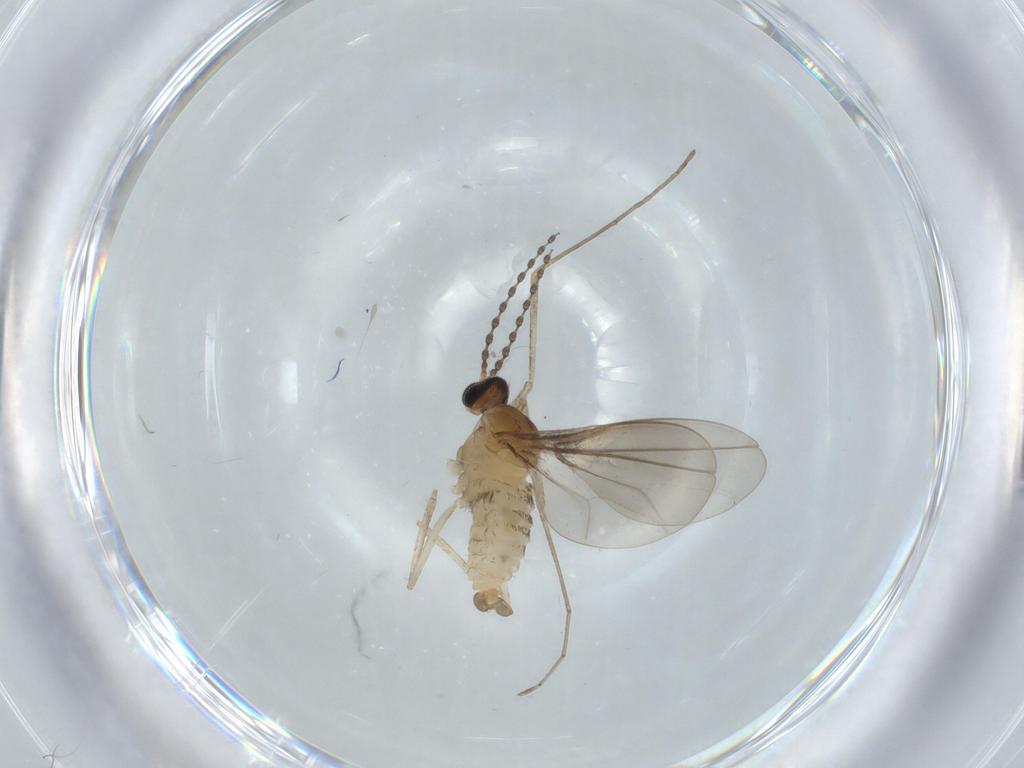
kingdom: Animalia
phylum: Arthropoda
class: Insecta
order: Diptera
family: Cecidomyiidae
